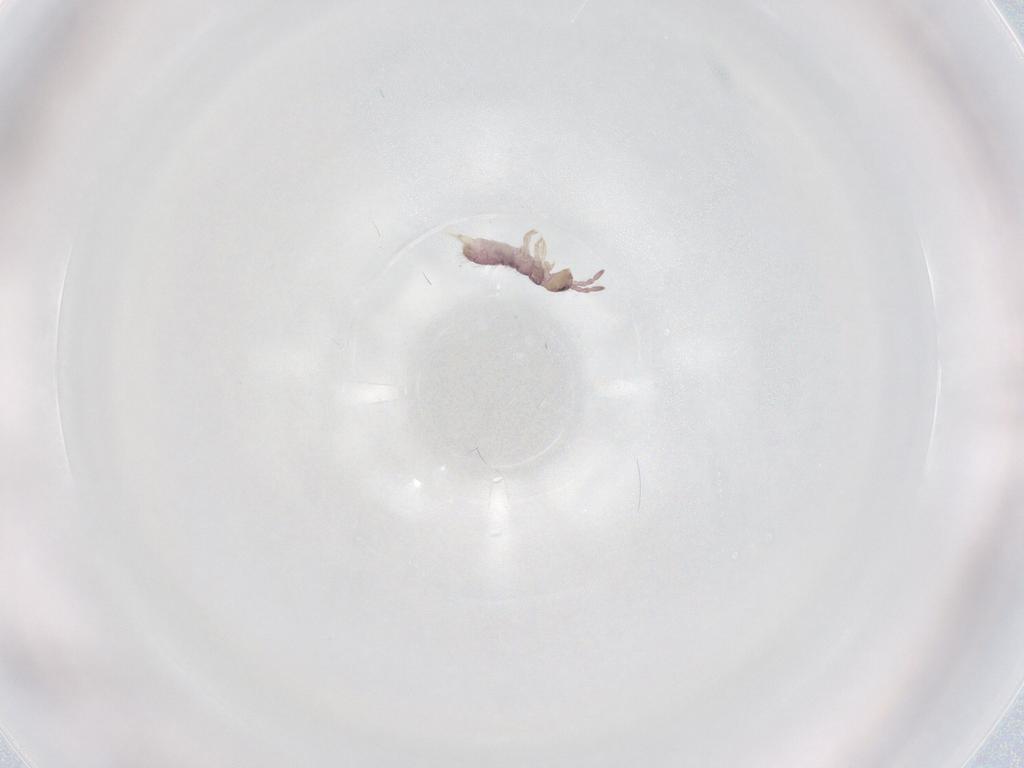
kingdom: Animalia
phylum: Arthropoda
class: Collembola
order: Entomobryomorpha
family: Isotomidae
